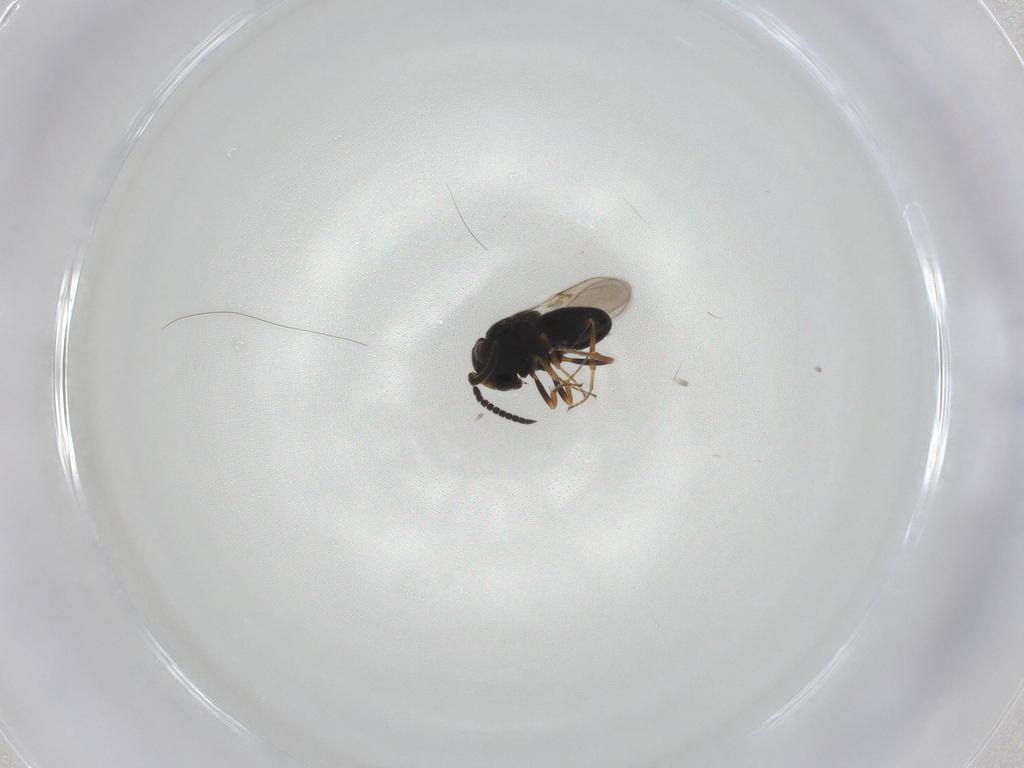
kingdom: Animalia
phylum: Arthropoda
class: Insecta
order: Hymenoptera
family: Scelionidae
